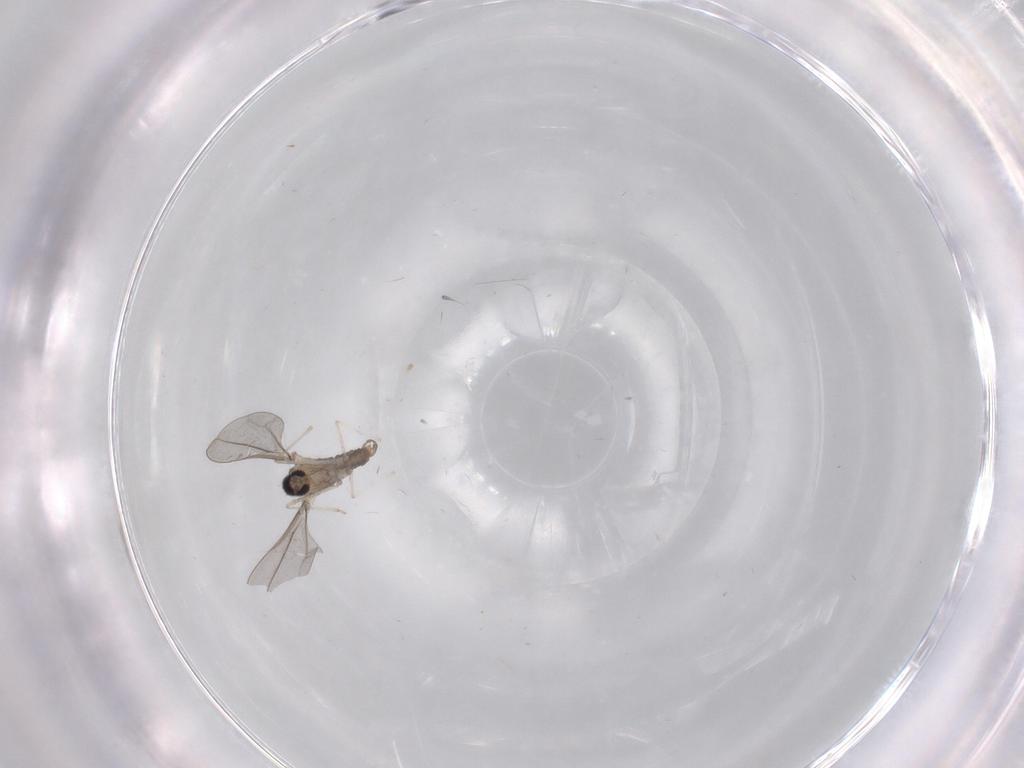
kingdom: Animalia
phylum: Arthropoda
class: Insecta
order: Diptera
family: Cecidomyiidae
